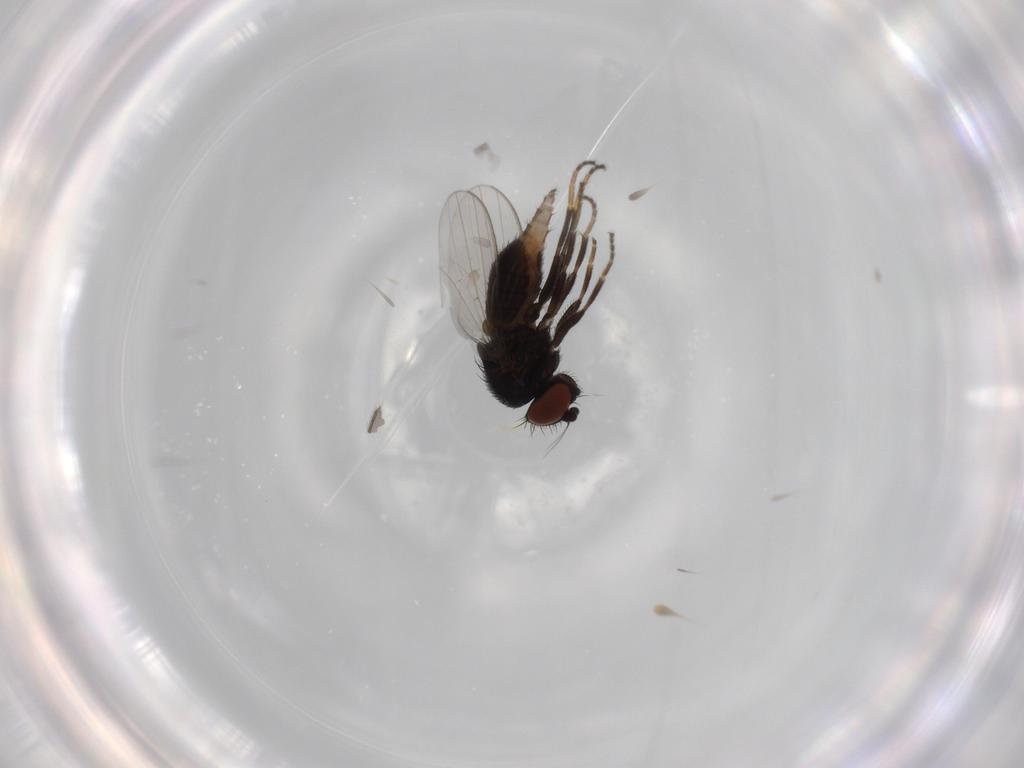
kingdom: Animalia
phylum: Arthropoda
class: Insecta
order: Diptera
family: Milichiidae
